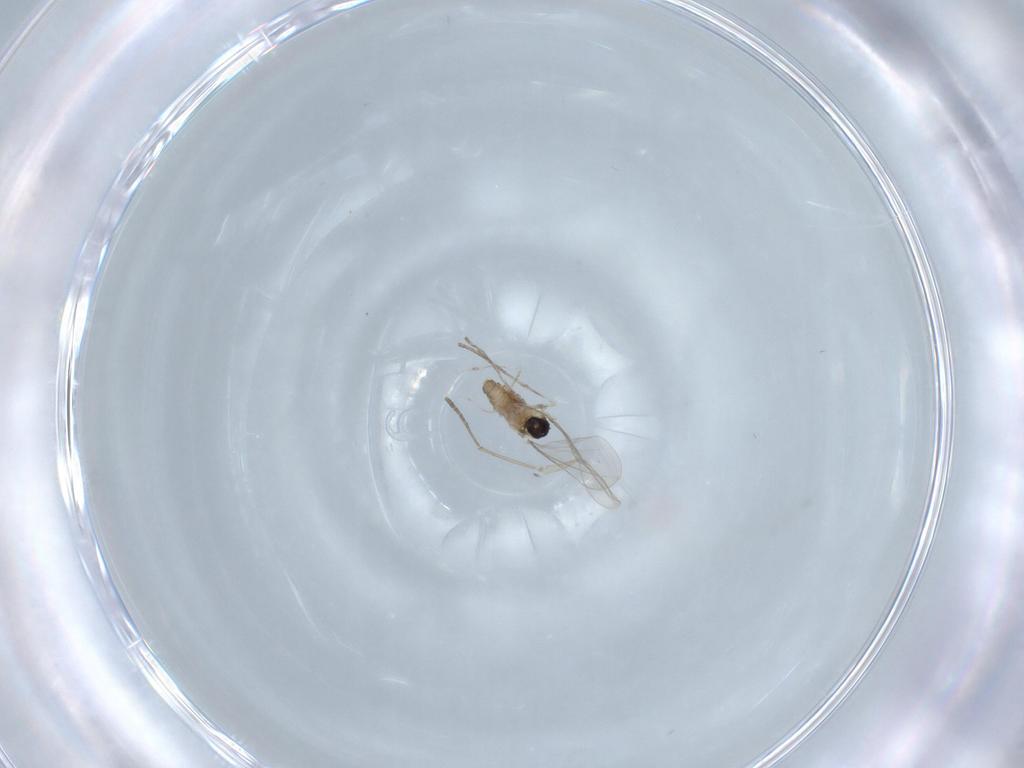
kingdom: Animalia
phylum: Arthropoda
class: Insecta
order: Diptera
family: Cecidomyiidae
